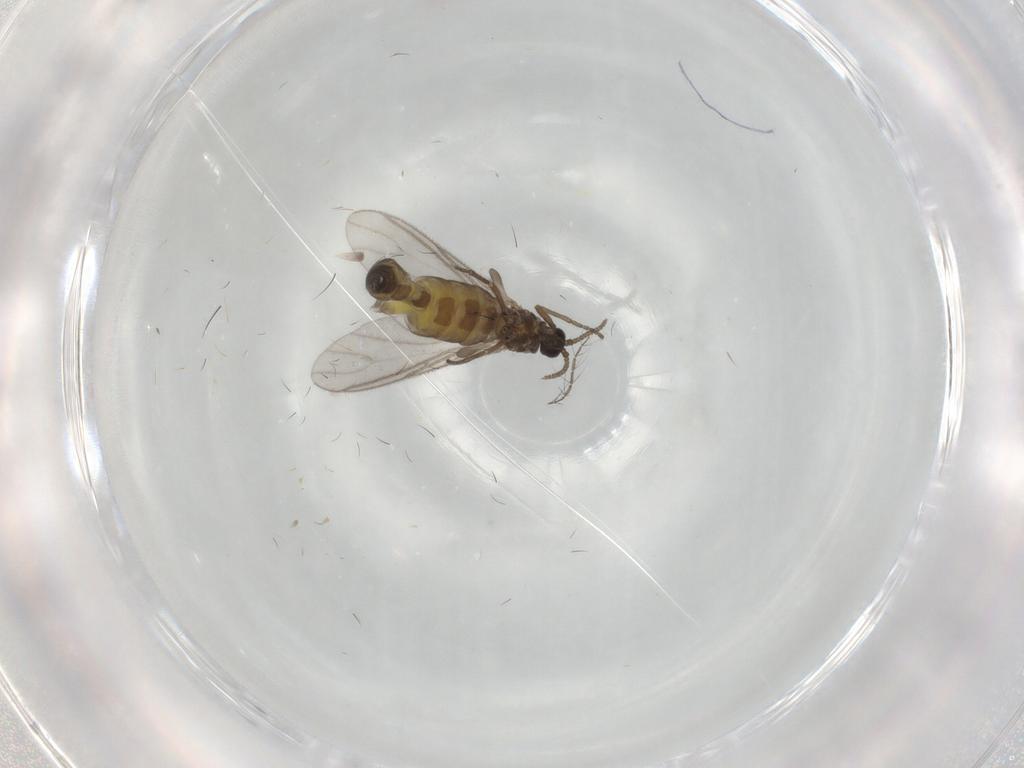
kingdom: Animalia
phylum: Arthropoda
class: Insecta
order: Diptera
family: Sciaridae
